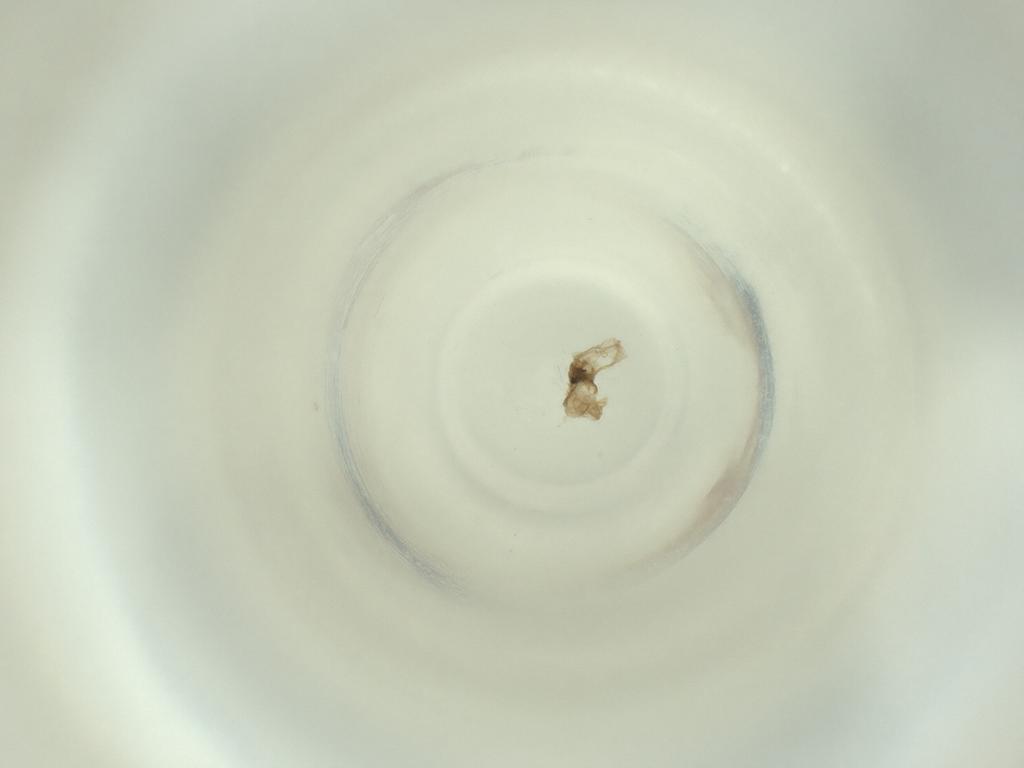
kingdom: Animalia
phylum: Arthropoda
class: Insecta
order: Diptera
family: Cecidomyiidae
